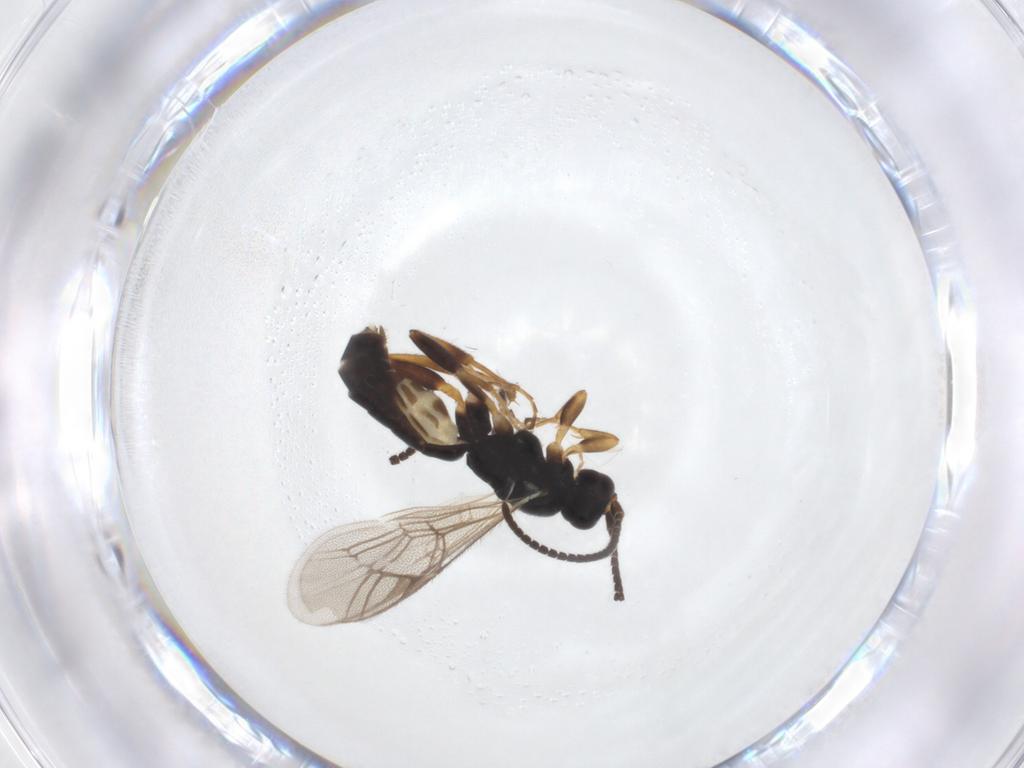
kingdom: Animalia
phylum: Arthropoda
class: Insecta
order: Hymenoptera
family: Ichneumonidae
